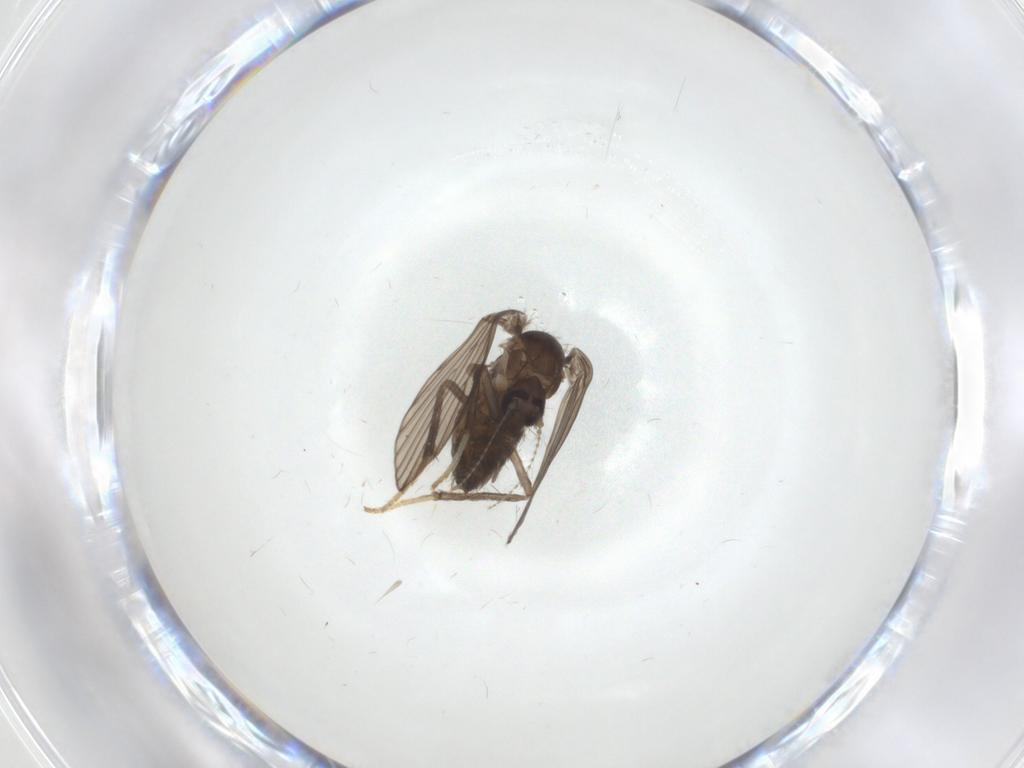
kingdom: Animalia
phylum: Arthropoda
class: Insecta
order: Diptera
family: Psychodidae
